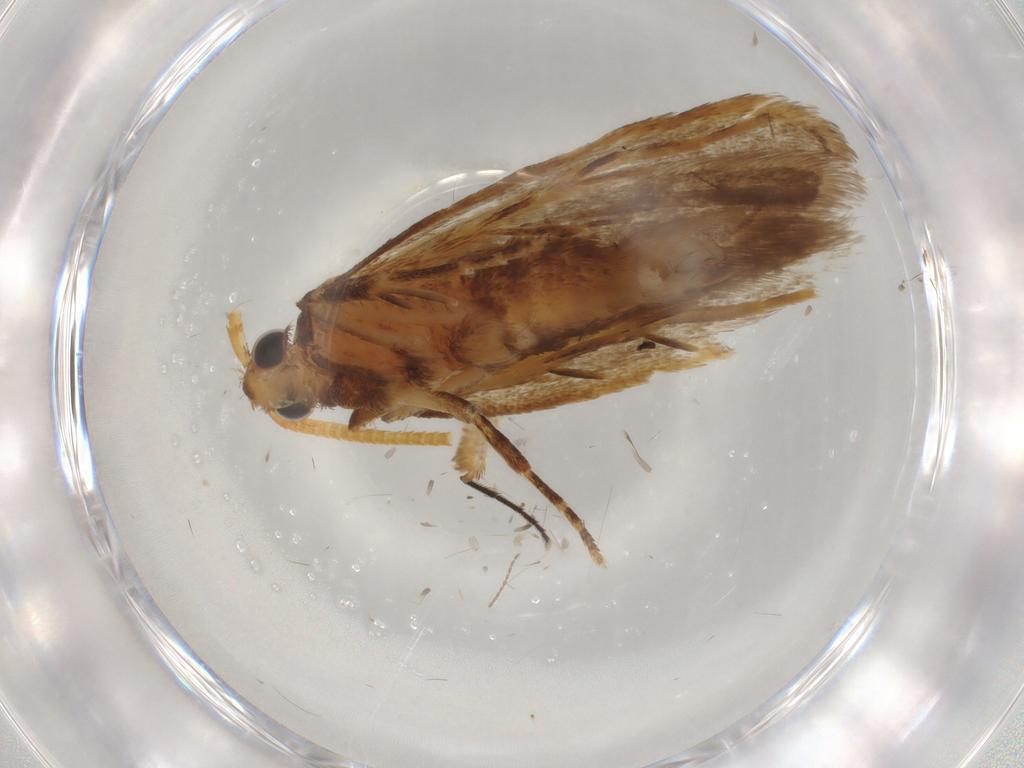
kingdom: Animalia
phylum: Arthropoda
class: Insecta
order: Lepidoptera
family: Lecithoceridae
